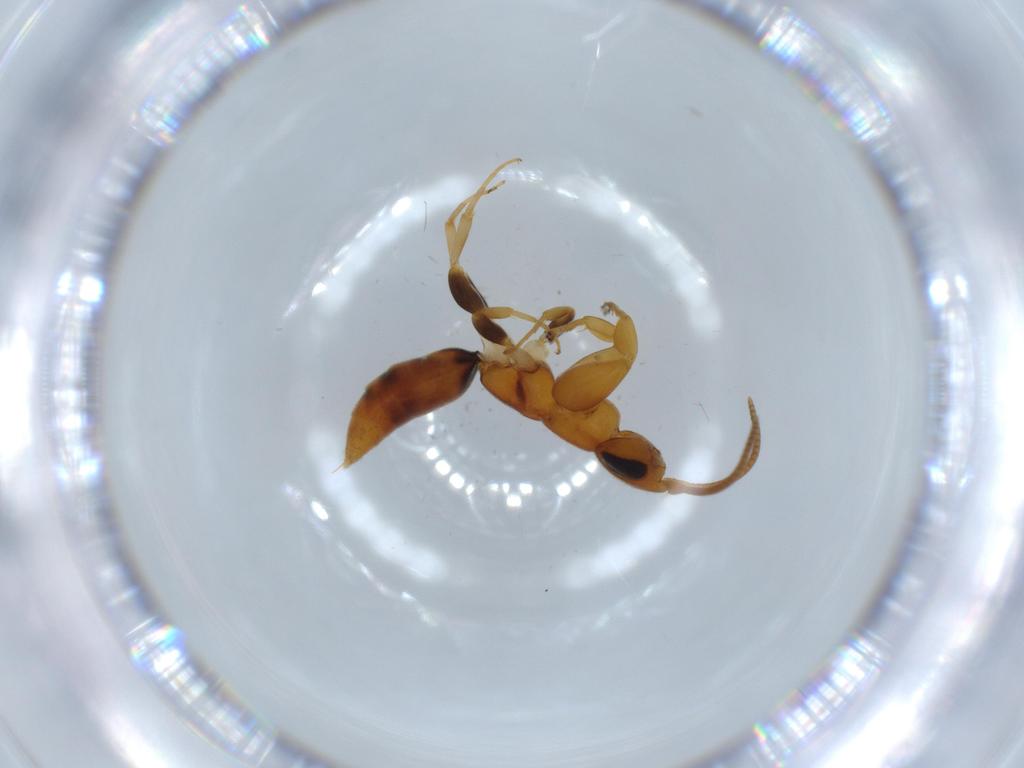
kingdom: Animalia
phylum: Arthropoda
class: Insecta
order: Hymenoptera
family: Sclerogibbidae
